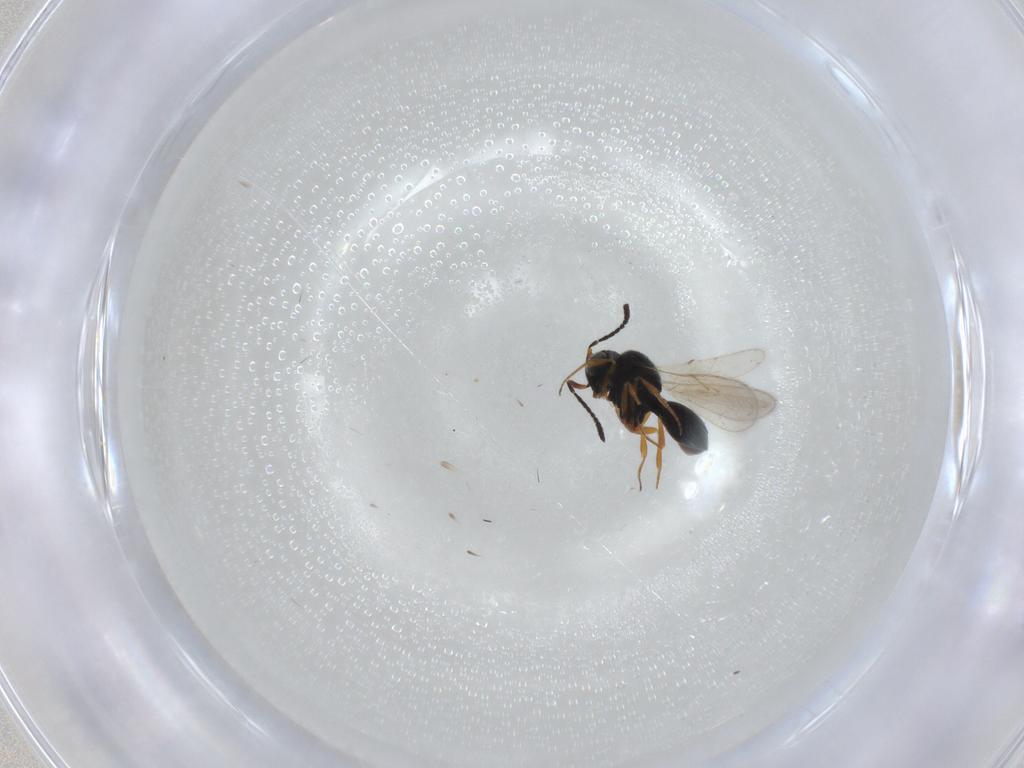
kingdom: Animalia
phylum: Arthropoda
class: Insecta
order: Hymenoptera
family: Scelionidae
